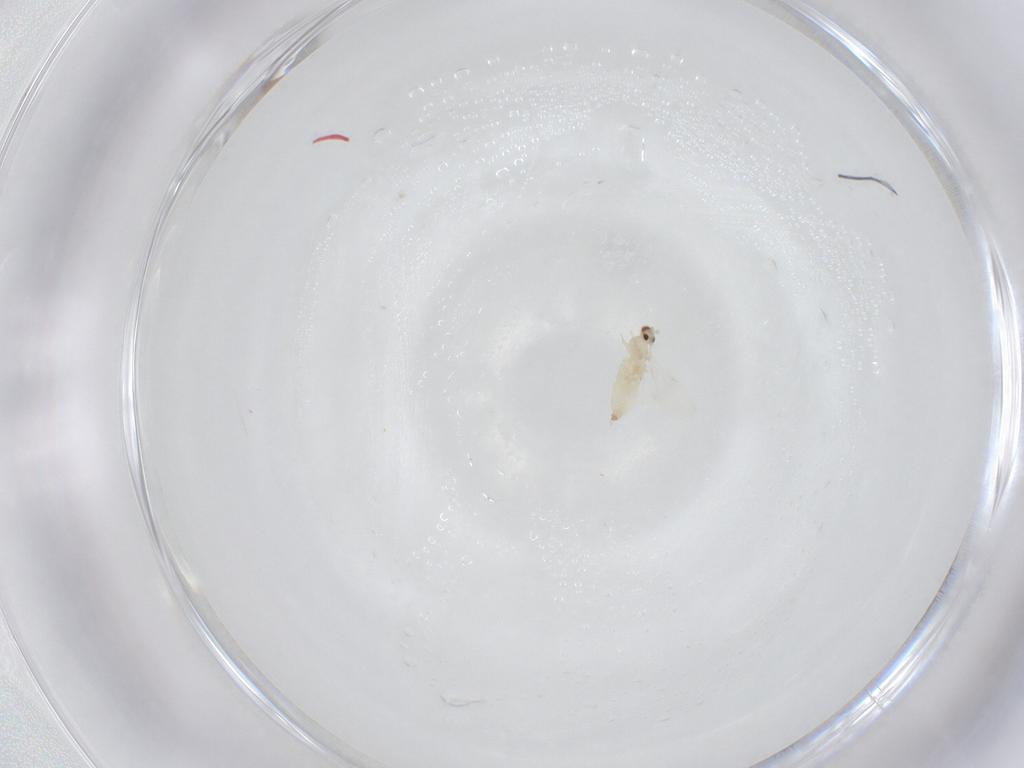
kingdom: Animalia
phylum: Arthropoda
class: Insecta
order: Diptera
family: Cecidomyiidae
